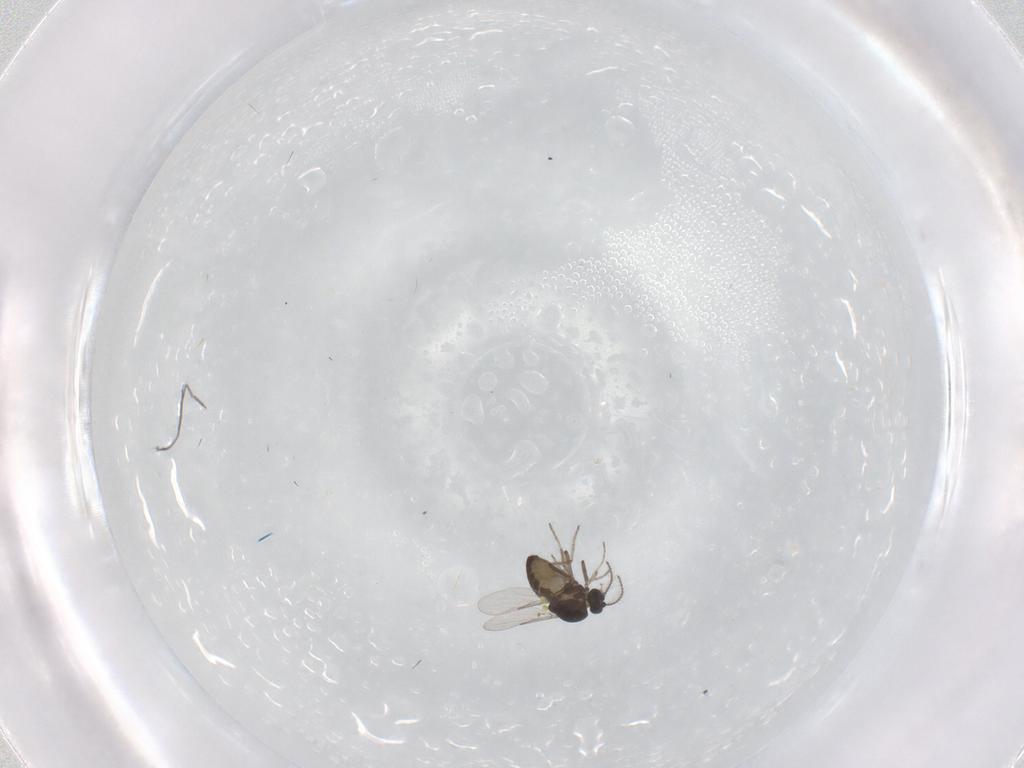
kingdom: Animalia
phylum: Arthropoda
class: Insecta
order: Diptera
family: Ceratopogonidae
